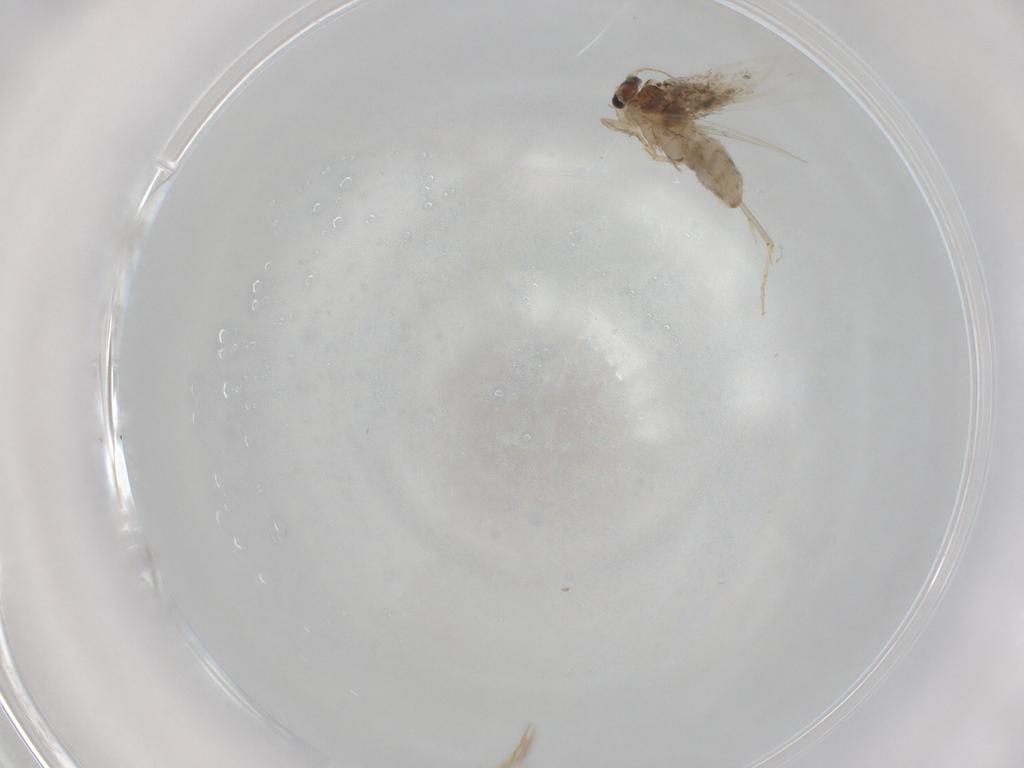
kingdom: Animalia
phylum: Arthropoda
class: Insecta
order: Lepidoptera
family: Nepticulidae
